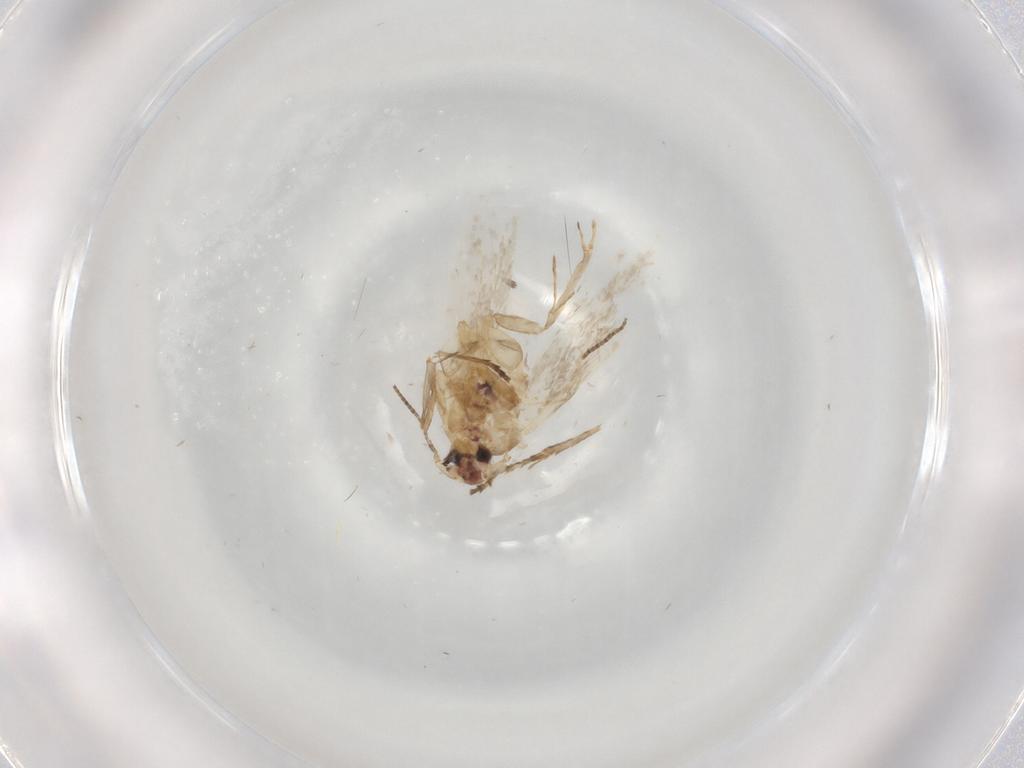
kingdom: Animalia
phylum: Arthropoda
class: Insecta
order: Lepidoptera
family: Bucculatricidae
